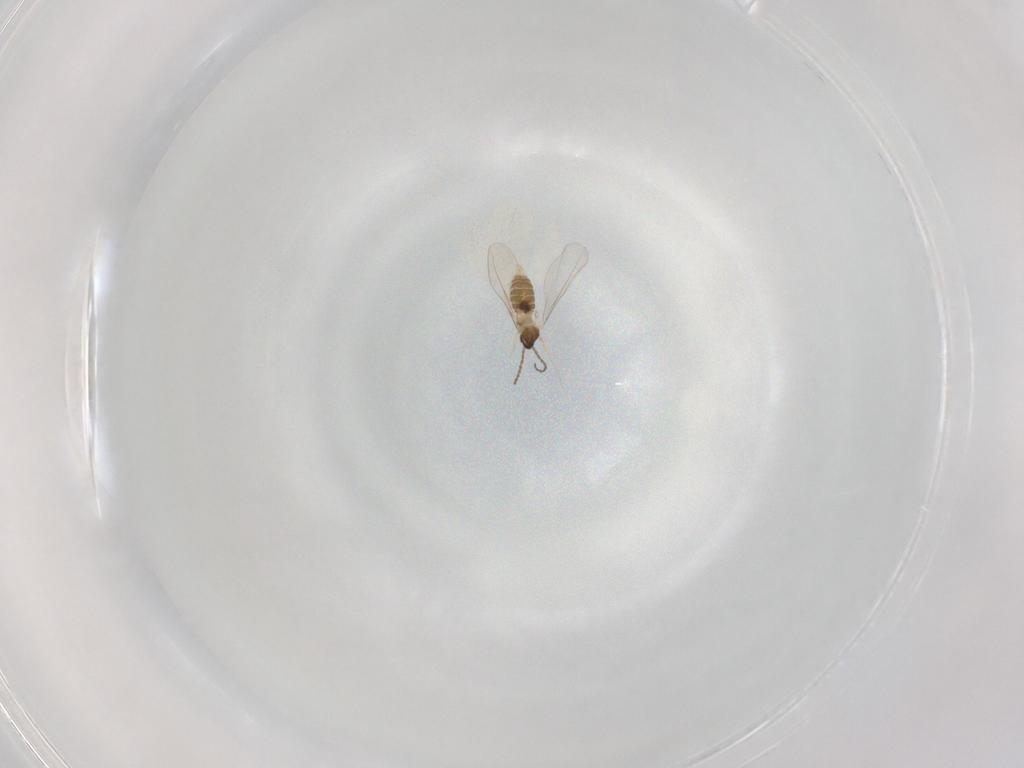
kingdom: Animalia
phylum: Arthropoda
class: Insecta
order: Diptera
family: Cecidomyiidae
